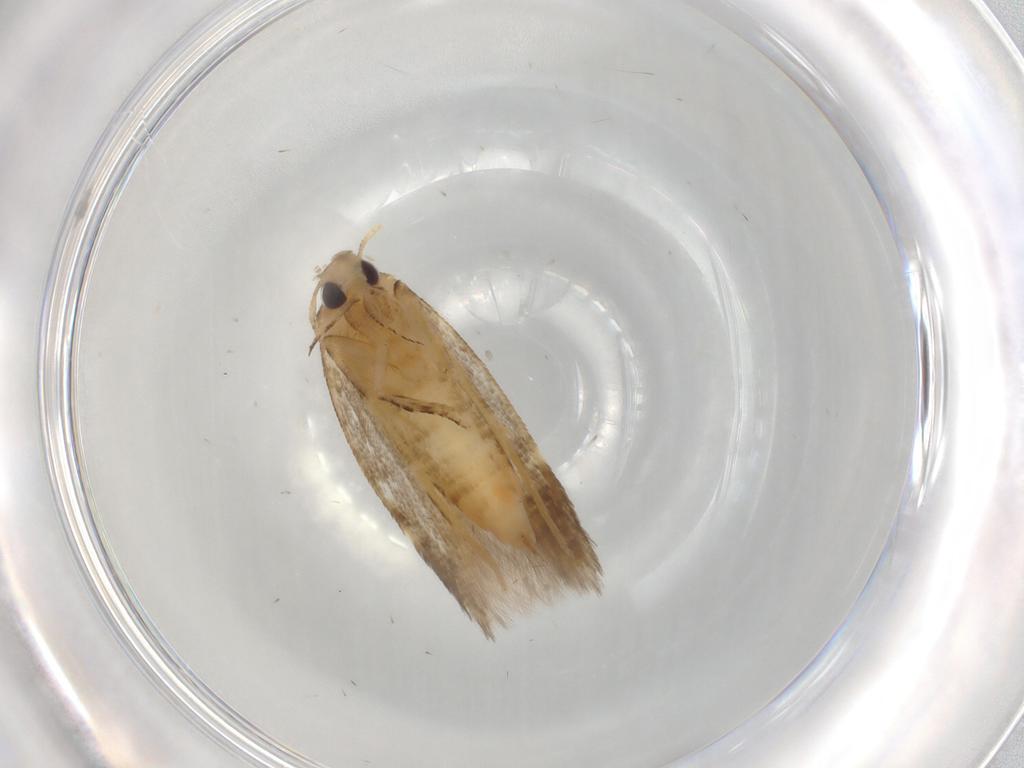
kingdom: Animalia
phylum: Arthropoda
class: Insecta
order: Lepidoptera
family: Cosmopterigidae
